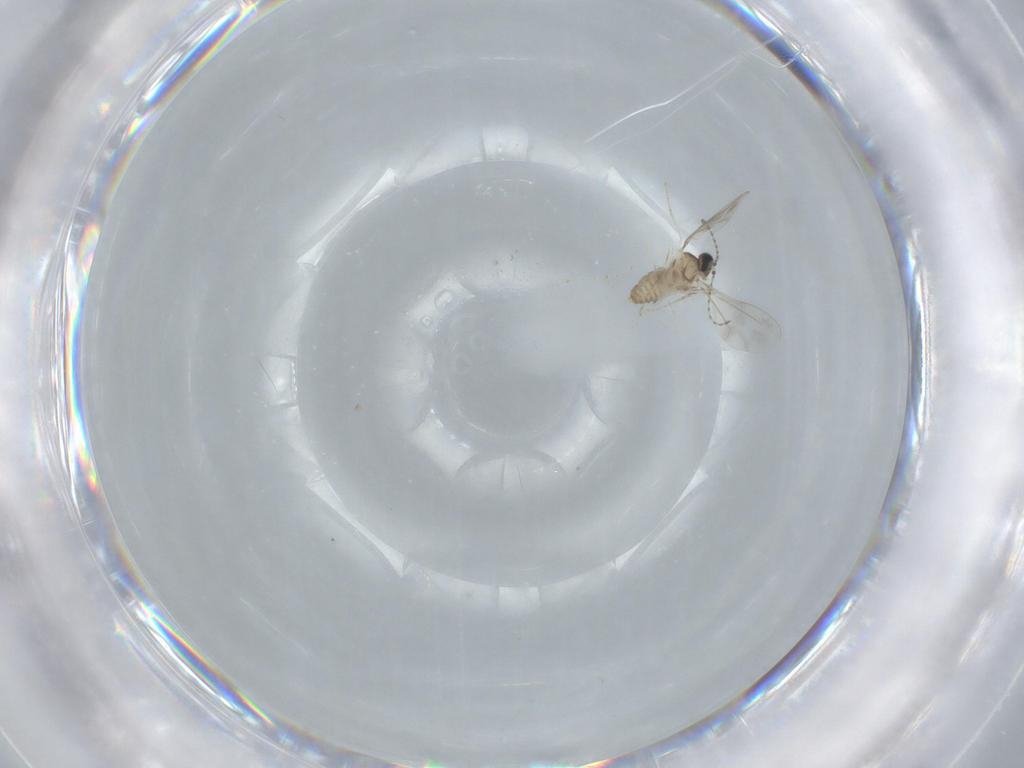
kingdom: Animalia
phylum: Arthropoda
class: Insecta
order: Diptera
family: Cecidomyiidae
